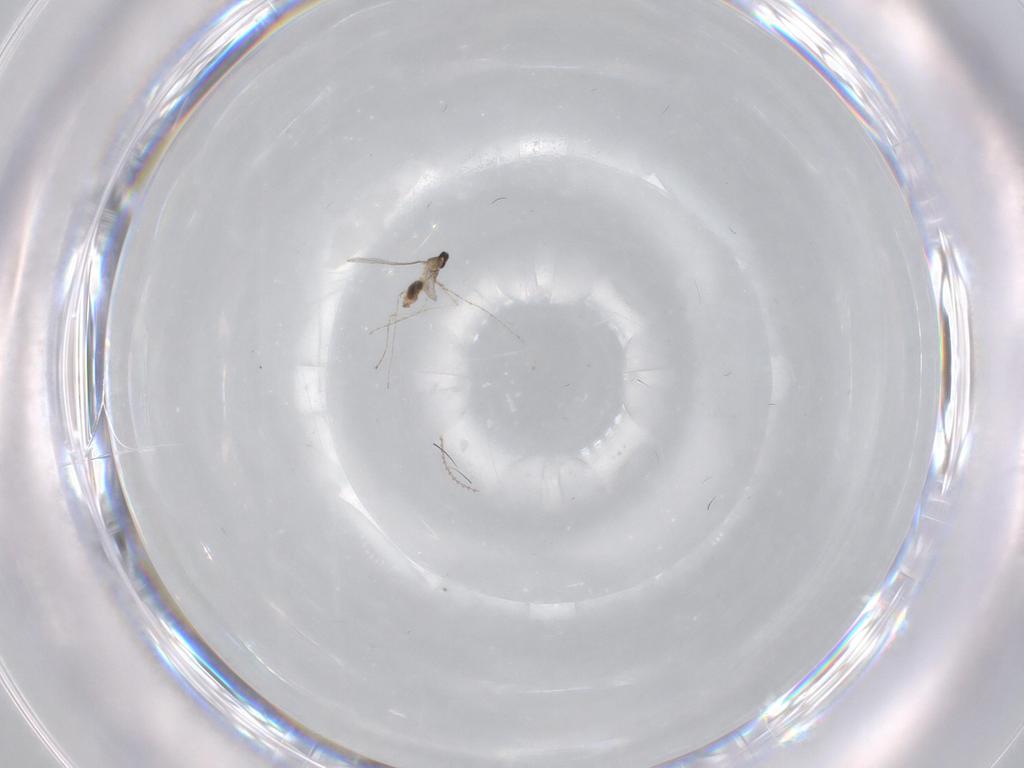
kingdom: Animalia
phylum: Arthropoda
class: Insecta
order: Diptera
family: Cecidomyiidae
